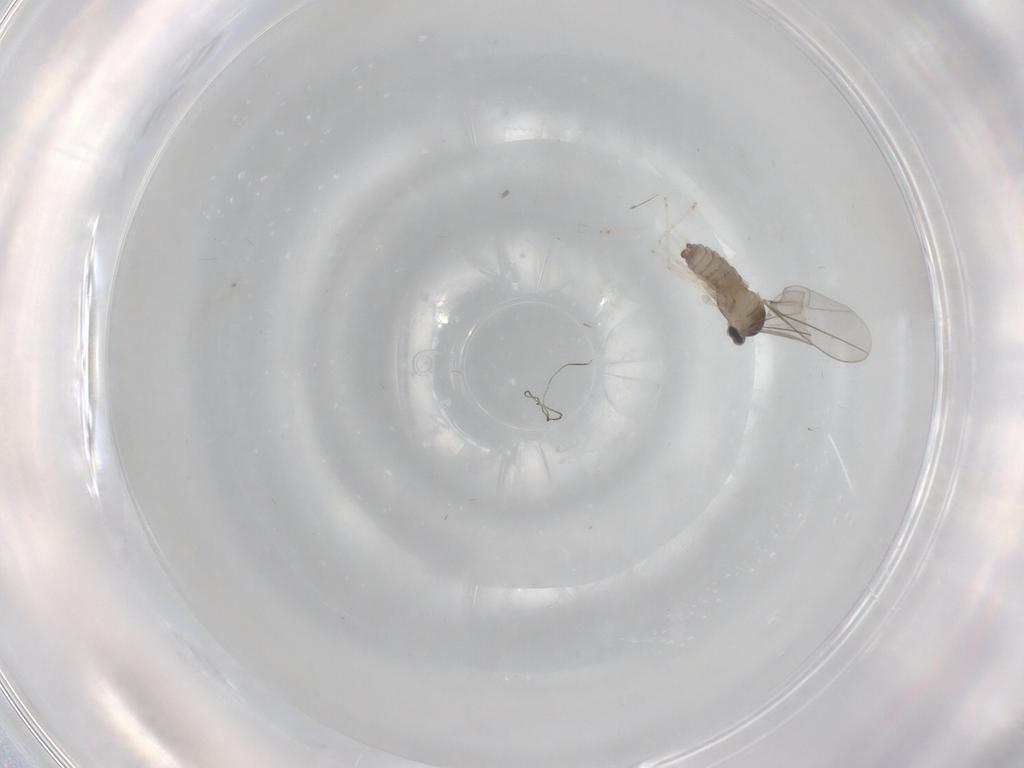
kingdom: Animalia
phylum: Arthropoda
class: Insecta
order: Diptera
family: Cecidomyiidae
